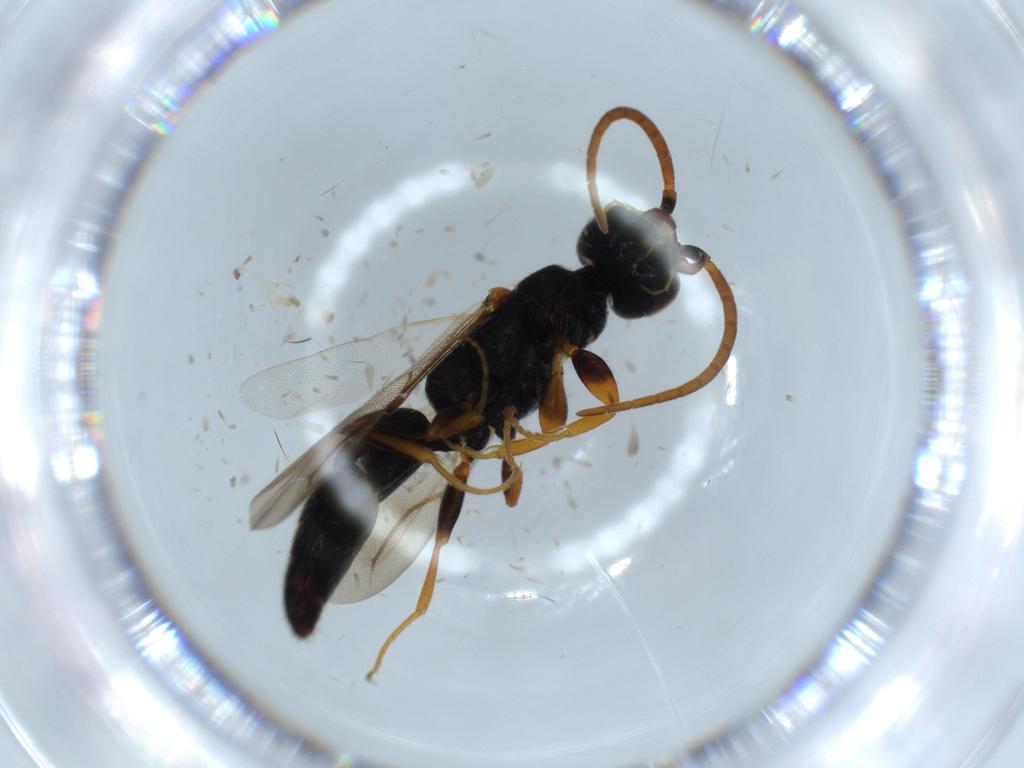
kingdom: Animalia
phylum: Arthropoda
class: Insecta
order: Hymenoptera
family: Bethylidae
